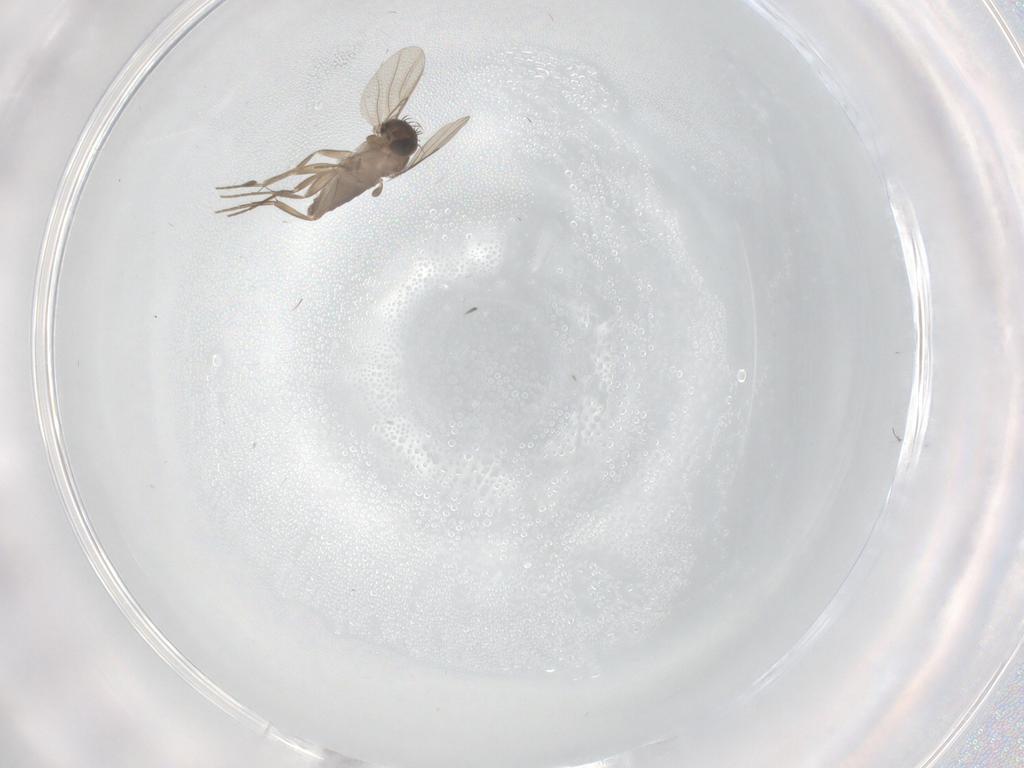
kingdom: Animalia
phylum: Arthropoda
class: Insecta
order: Diptera
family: Phoridae
